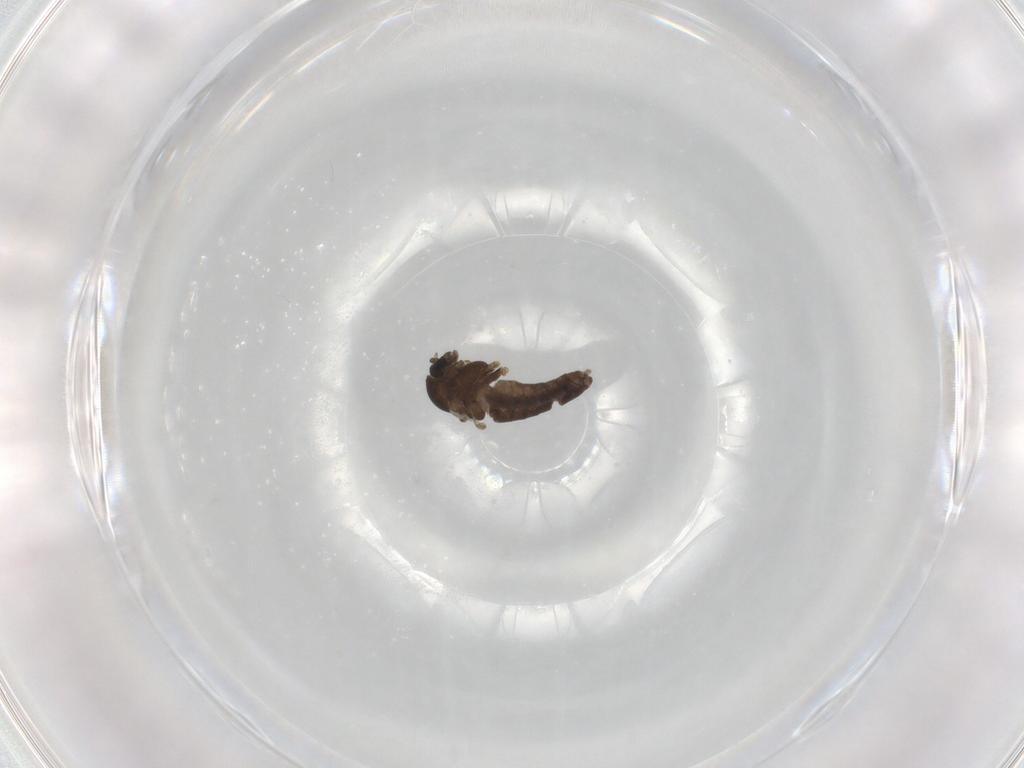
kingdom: Animalia
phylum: Arthropoda
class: Insecta
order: Diptera
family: Chironomidae
